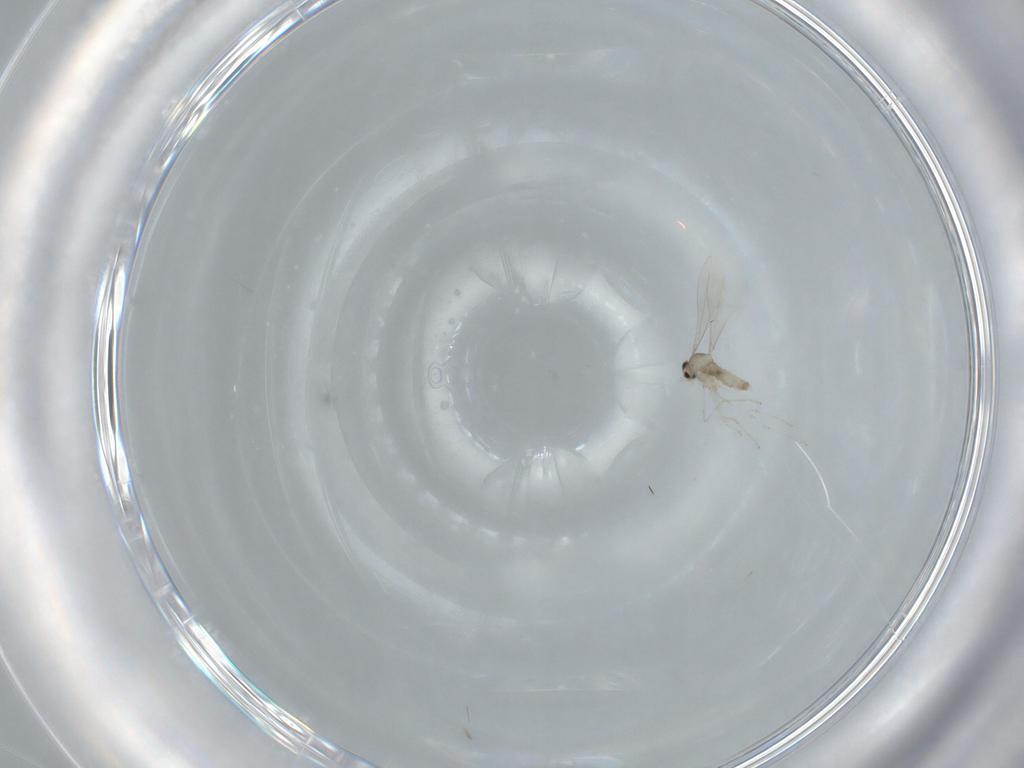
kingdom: Animalia
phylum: Arthropoda
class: Insecta
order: Diptera
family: Cecidomyiidae
